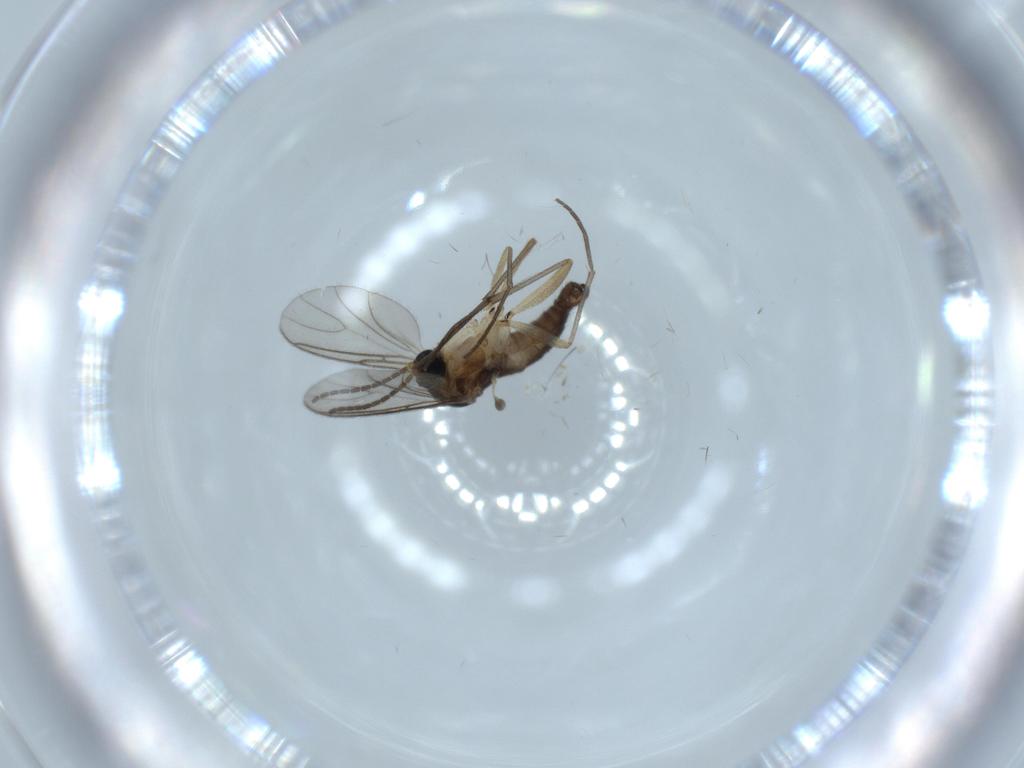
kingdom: Animalia
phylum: Arthropoda
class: Insecta
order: Diptera
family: Sciaridae
